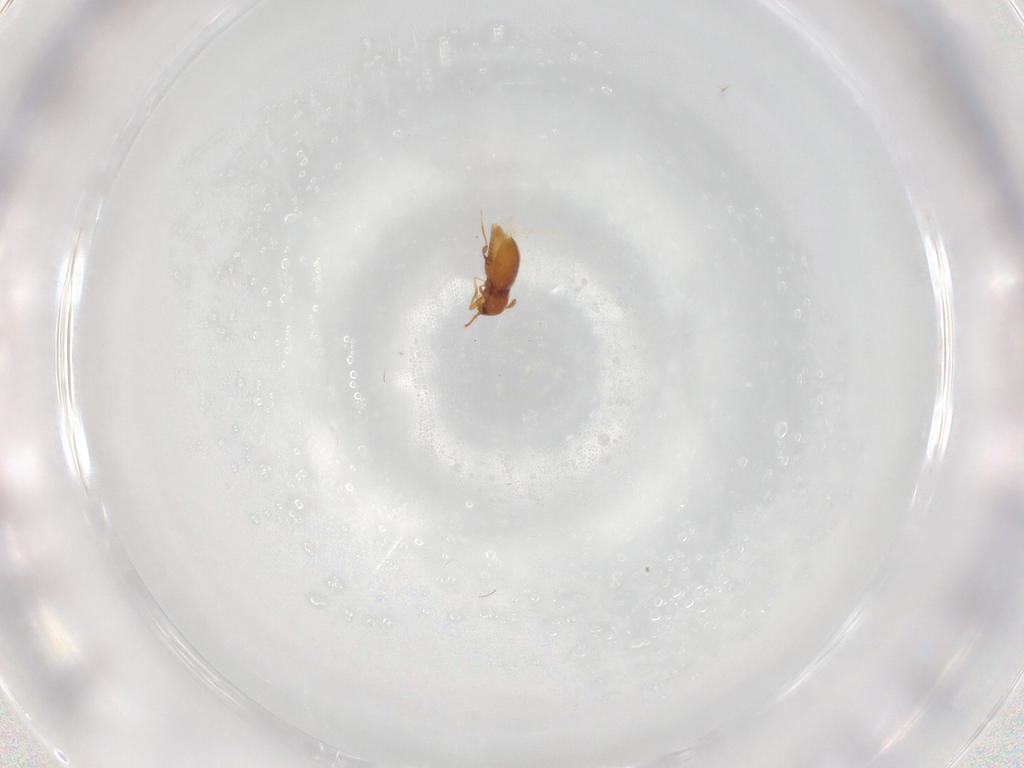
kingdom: Animalia
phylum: Arthropoda
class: Insecta
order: Coleoptera
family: Staphylinidae
